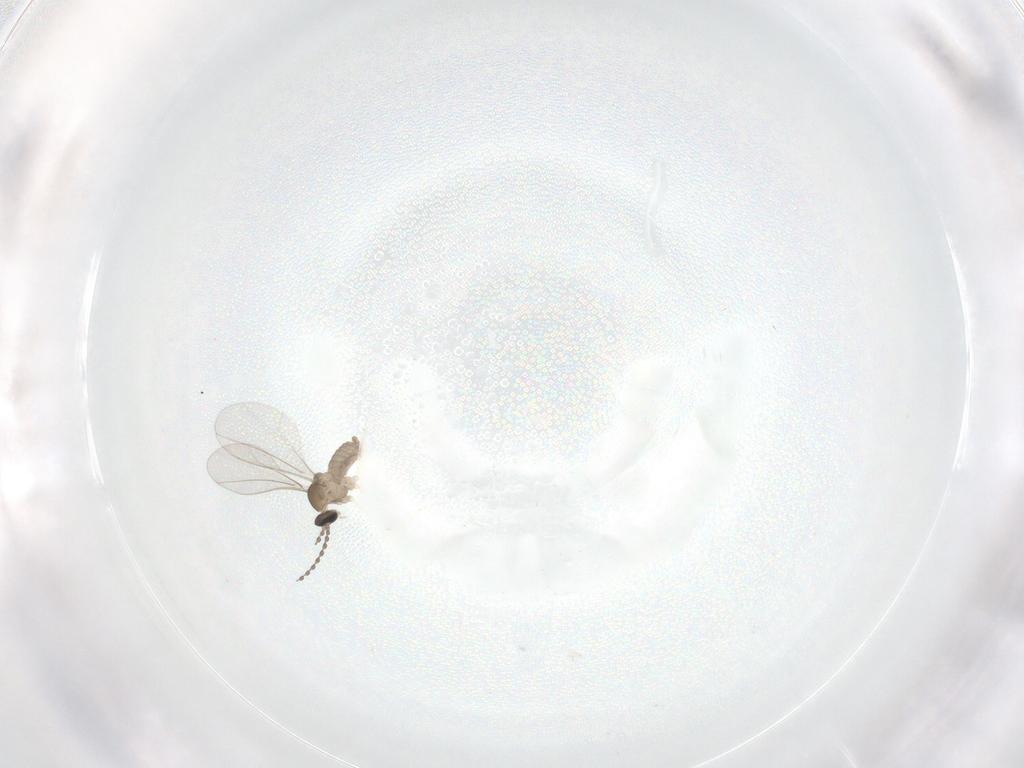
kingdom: Animalia
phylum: Arthropoda
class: Insecta
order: Diptera
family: Cecidomyiidae
